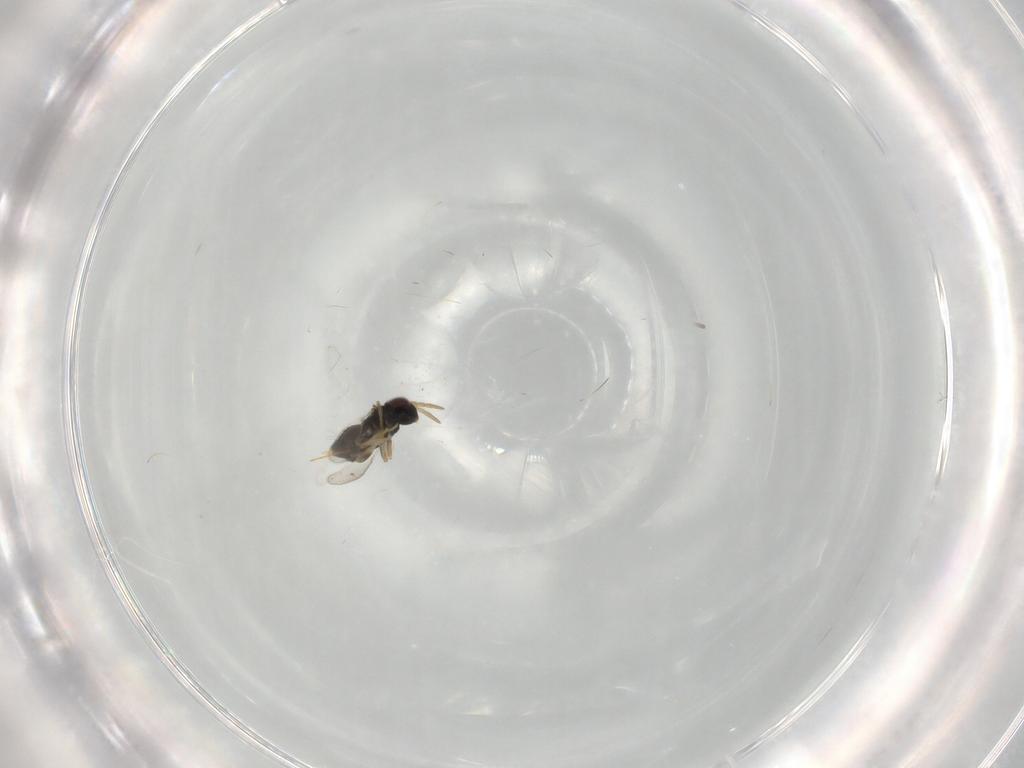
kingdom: Animalia
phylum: Arthropoda
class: Insecta
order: Hymenoptera
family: Aphelinidae
